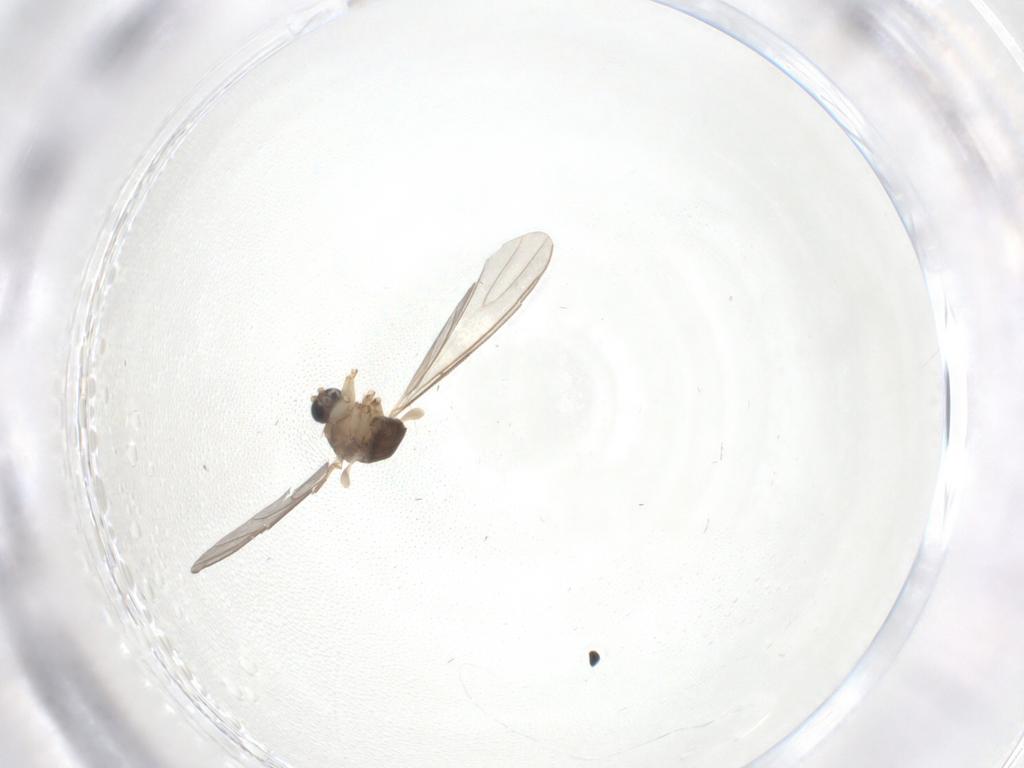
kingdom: Animalia
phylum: Arthropoda
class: Insecta
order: Diptera
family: Sciaridae
